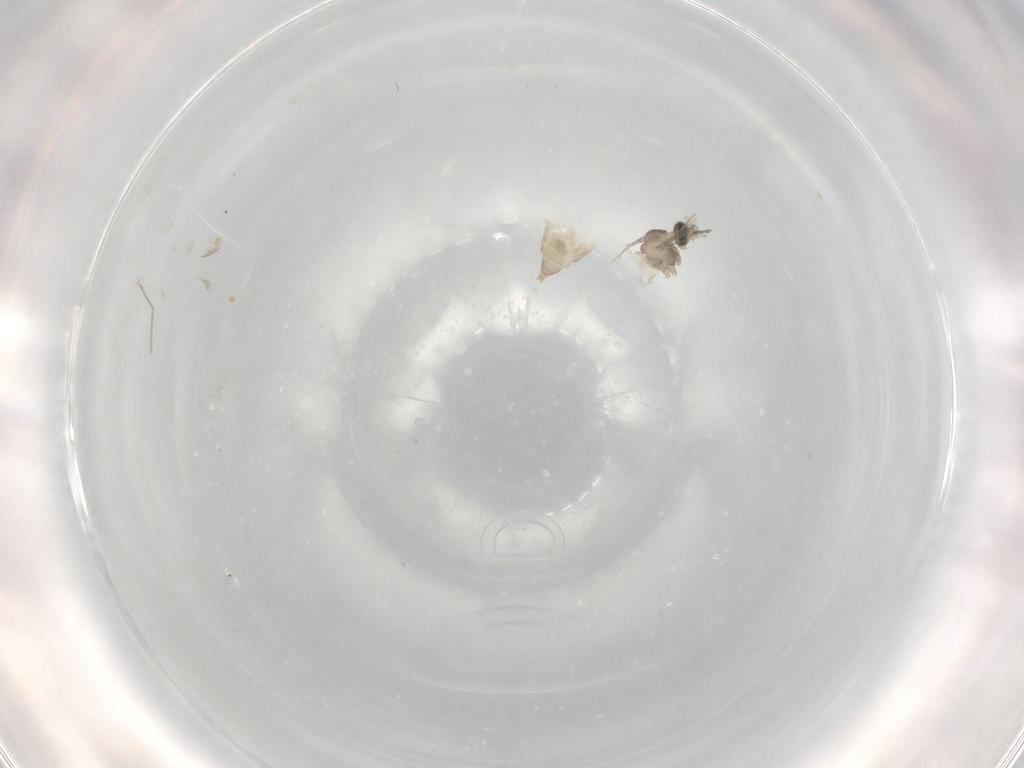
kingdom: Animalia
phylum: Arthropoda
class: Insecta
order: Diptera
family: Cecidomyiidae
